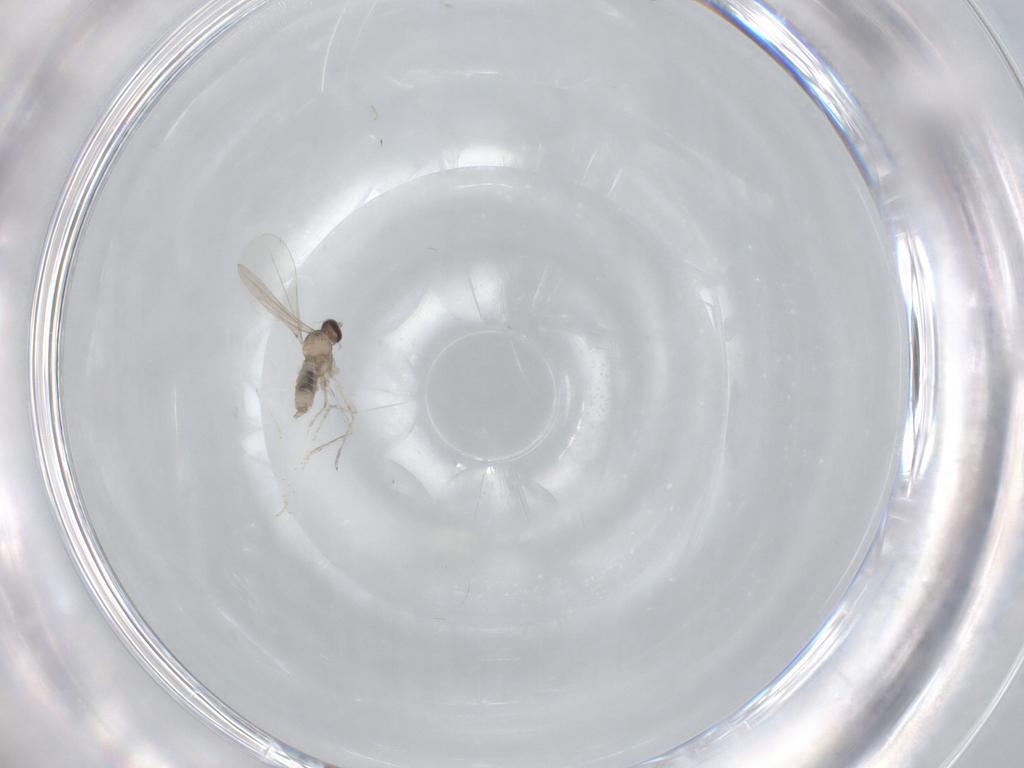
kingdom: Animalia
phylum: Arthropoda
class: Insecta
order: Diptera
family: Cecidomyiidae
